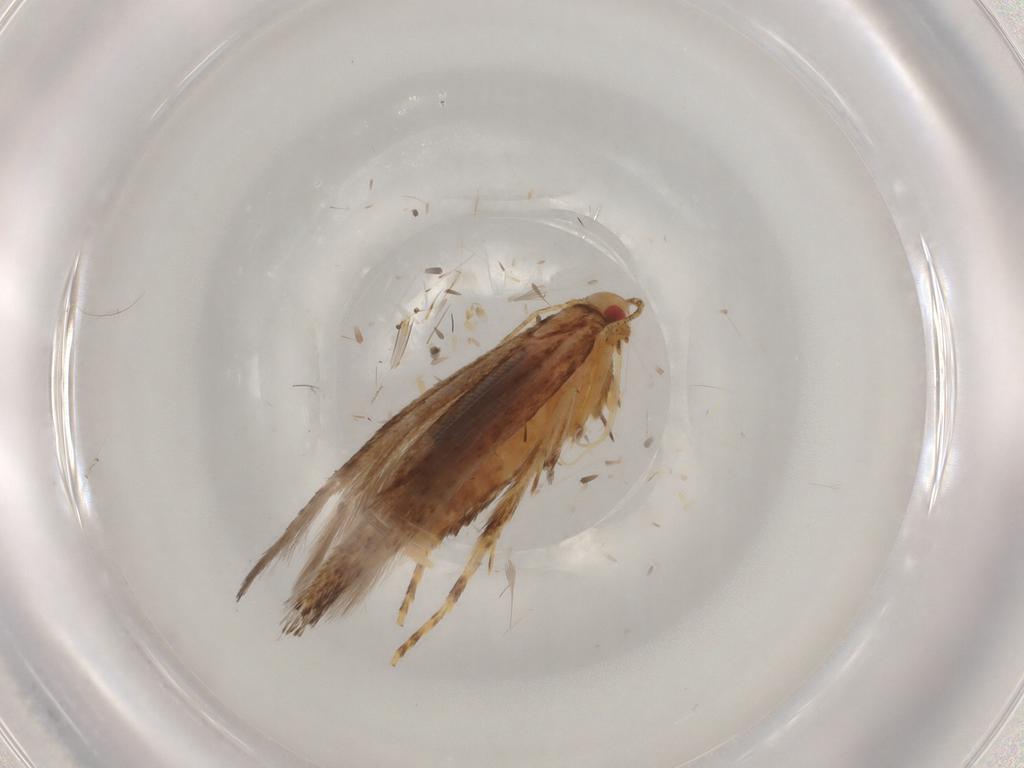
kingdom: Animalia
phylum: Arthropoda
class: Insecta
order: Lepidoptera
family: Cosmopterigidae
